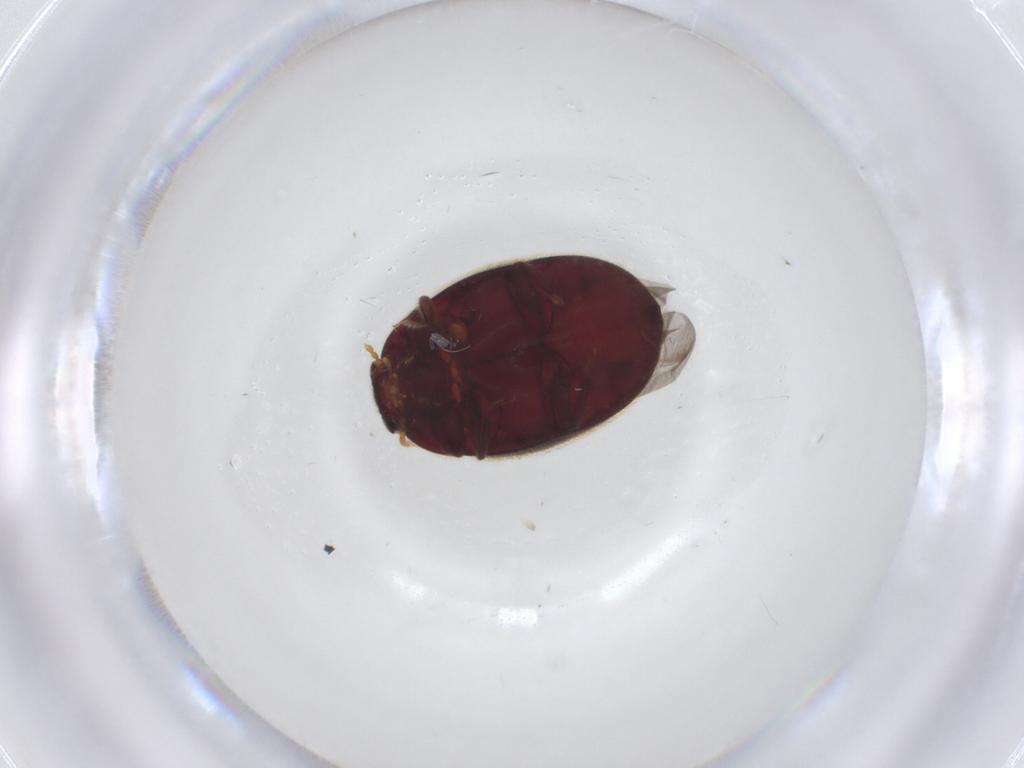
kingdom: Animalia
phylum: Arthropoda
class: Insecta
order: Coleoptera
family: Limnichidae
